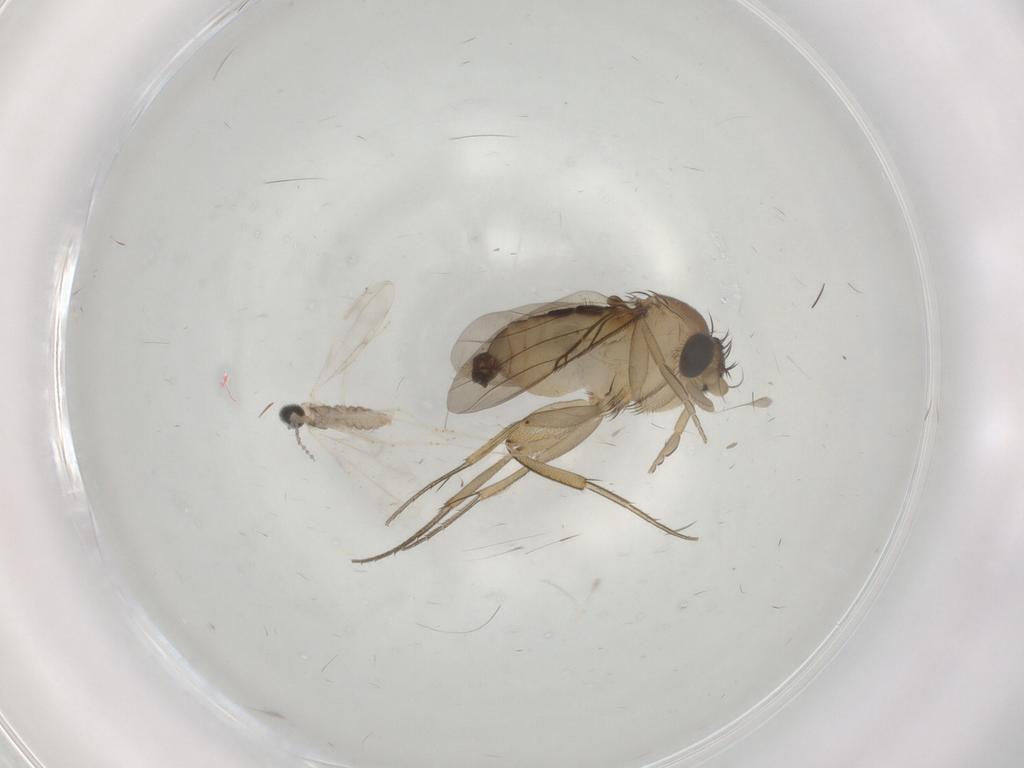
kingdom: Animalia
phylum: Arthropoda
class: Insecta
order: Diptera
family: Phoridae
